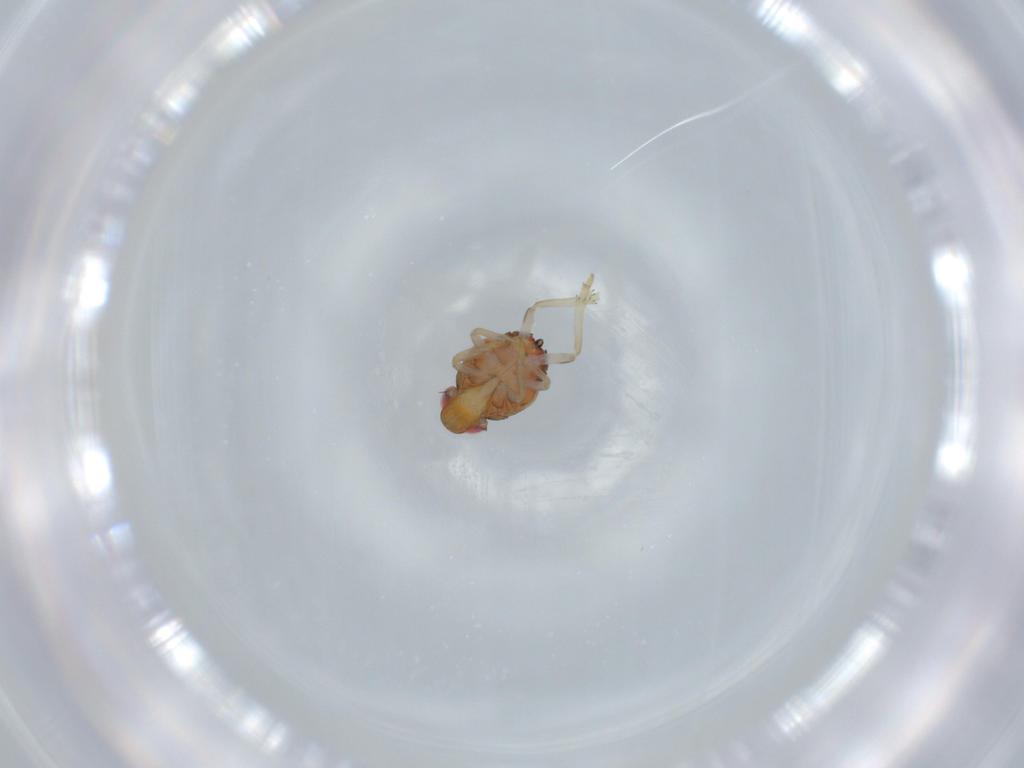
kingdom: Animalia
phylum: Arthropoda
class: Insecta
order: Hemiptera
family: Issidae
